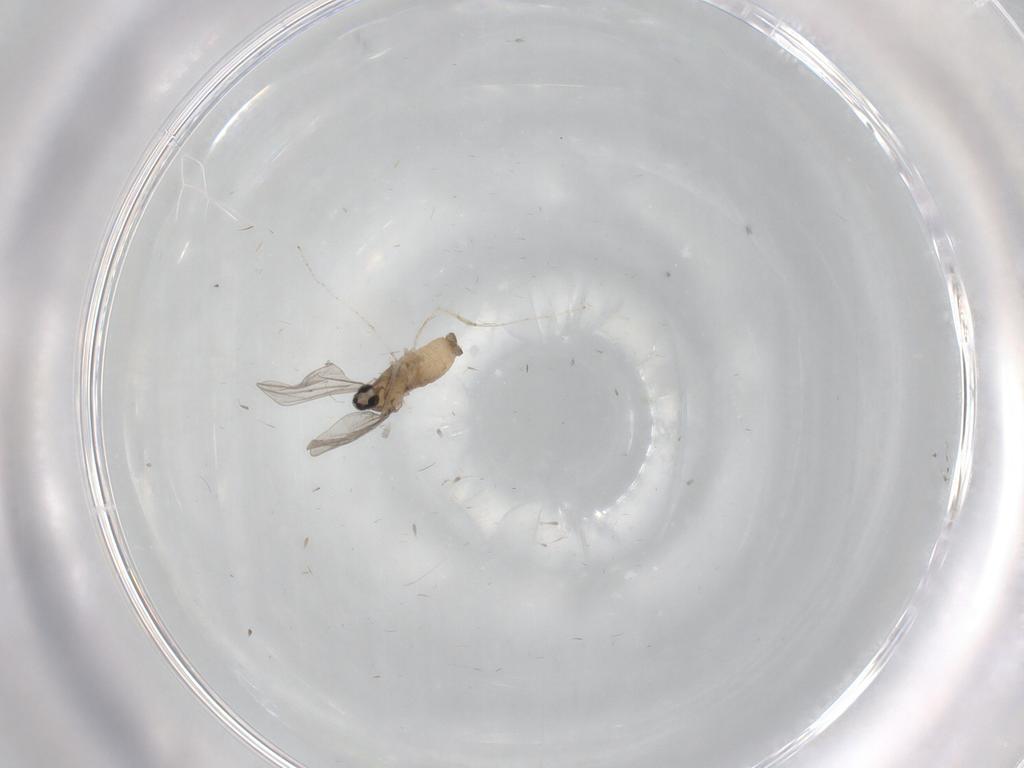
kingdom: Animalia
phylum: Arthropoda
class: Insecta
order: Diptera
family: Cecidomyiidae
